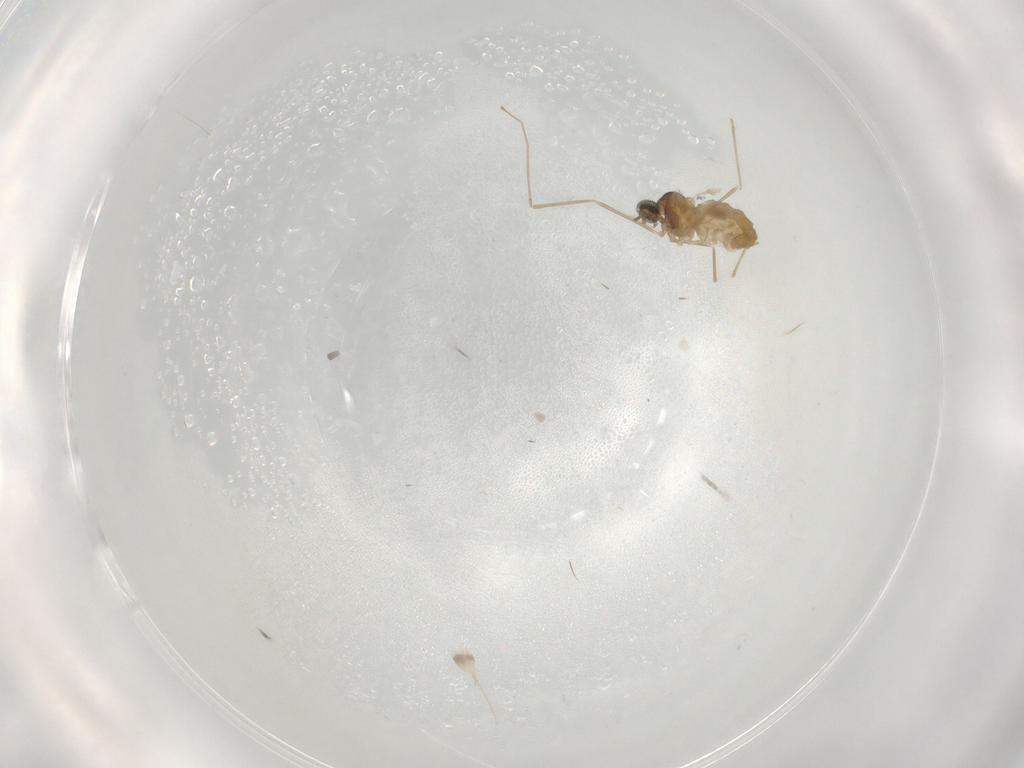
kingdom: Animalia
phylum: Arthropoda
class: Insecta
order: Diptera
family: Cecidomyiidae
